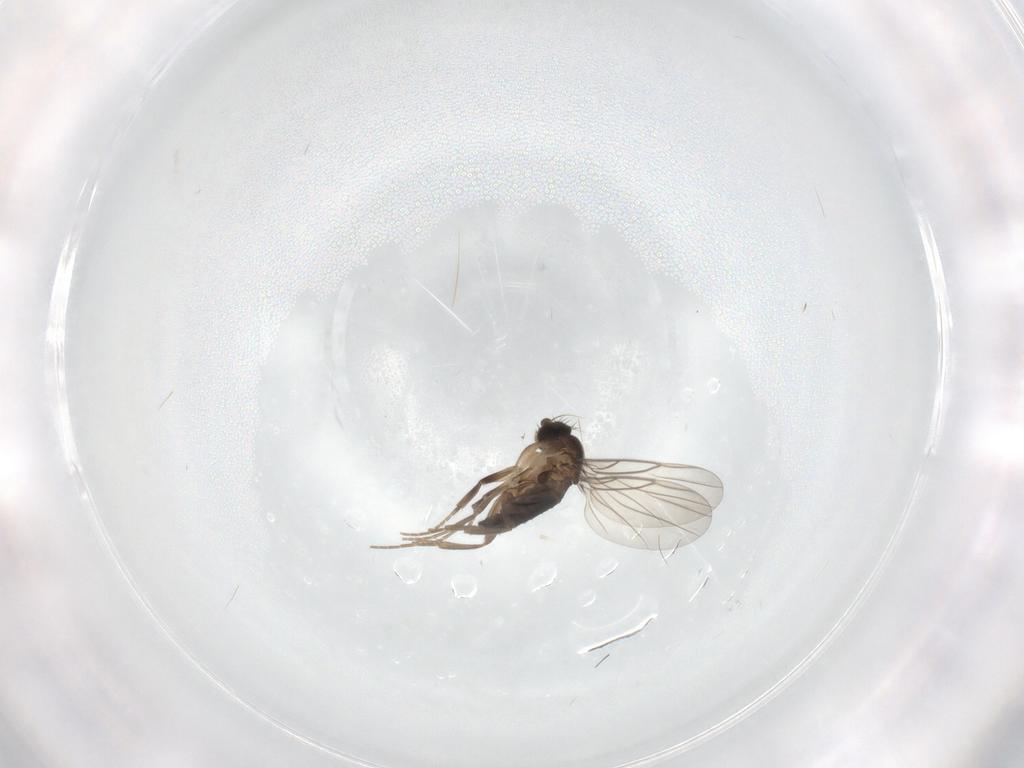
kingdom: Animalia
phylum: Arthropoda
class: Insecta
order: Diptera
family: Phoridae
